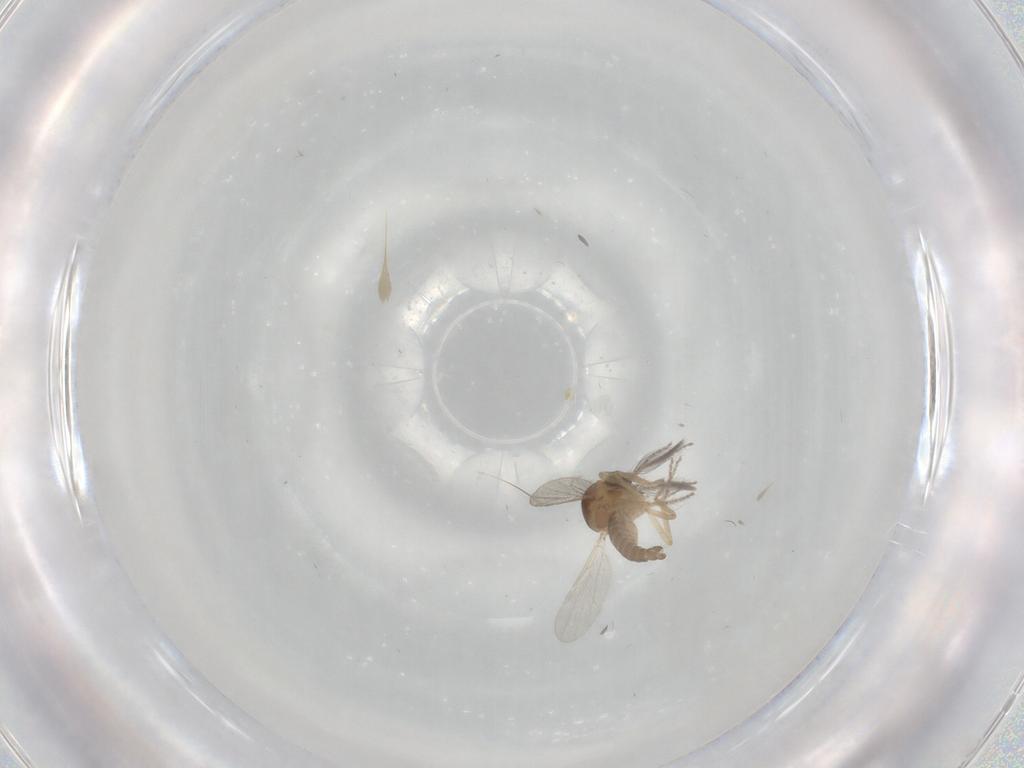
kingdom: Animalia
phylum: Arthropoda
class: Insecta
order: Diptera
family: Ceratopogonidae
